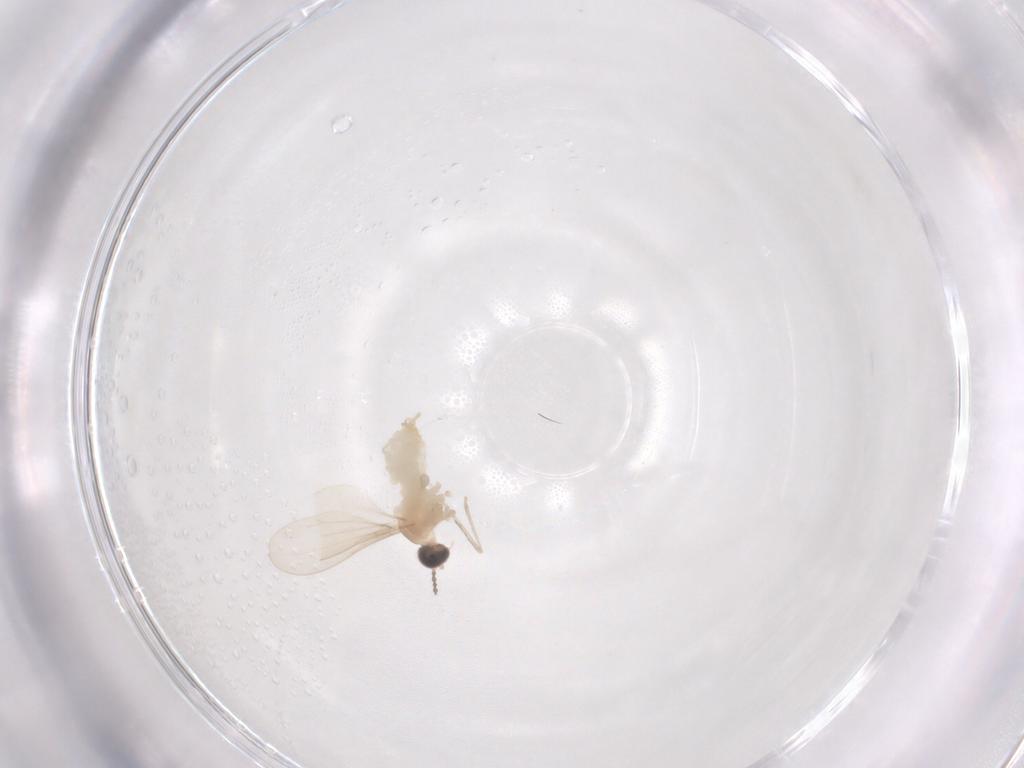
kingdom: Animalia
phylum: Arthropoda
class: Insecta
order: Diptera
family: Cecidomyiidae
